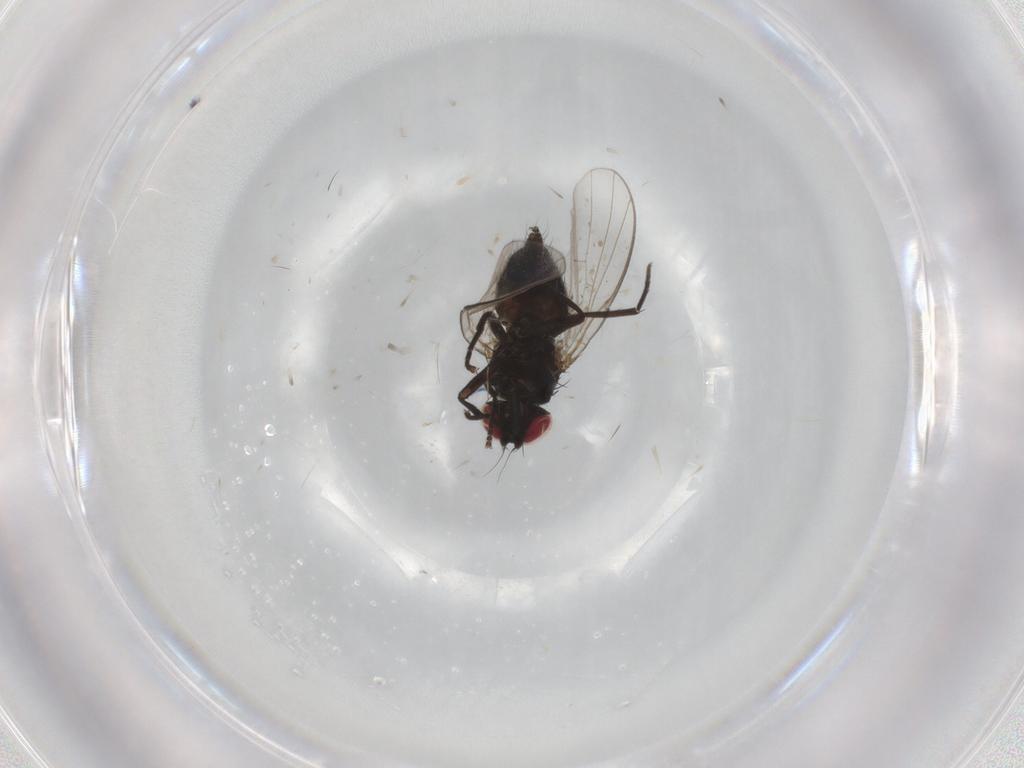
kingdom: Animalia
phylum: Arthropoda
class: Insecta
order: Diptera
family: Agromyzidae
